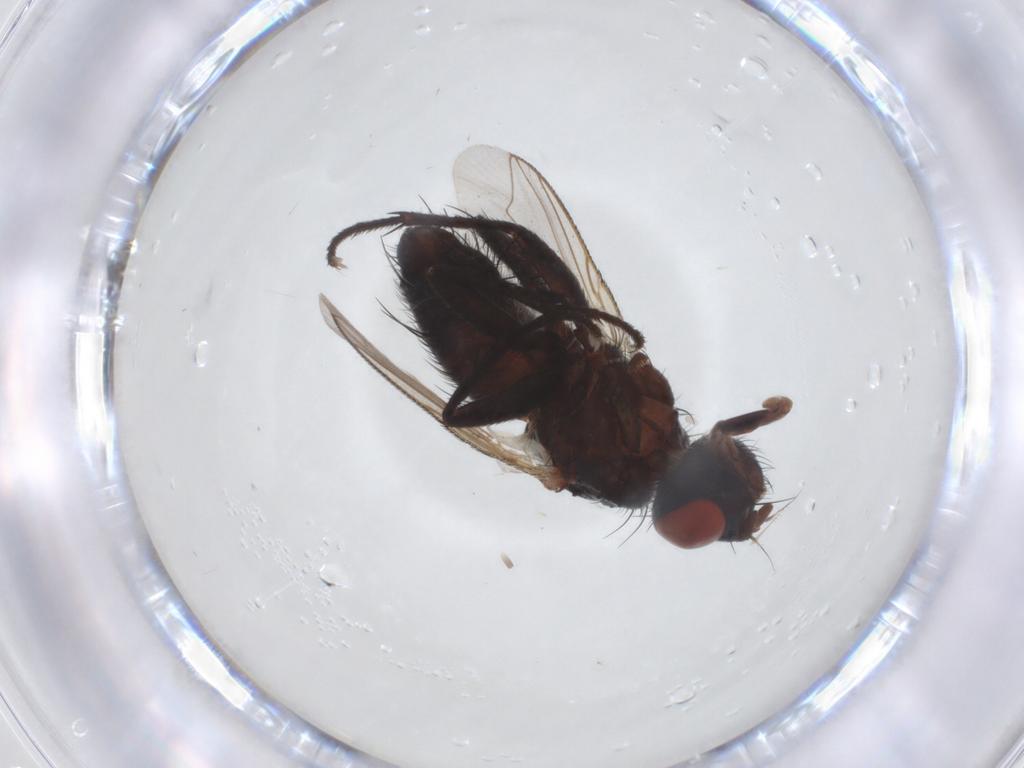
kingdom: Animalia
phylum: Arthropoda
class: Insecta
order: Diptera
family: Sarcophagidae
